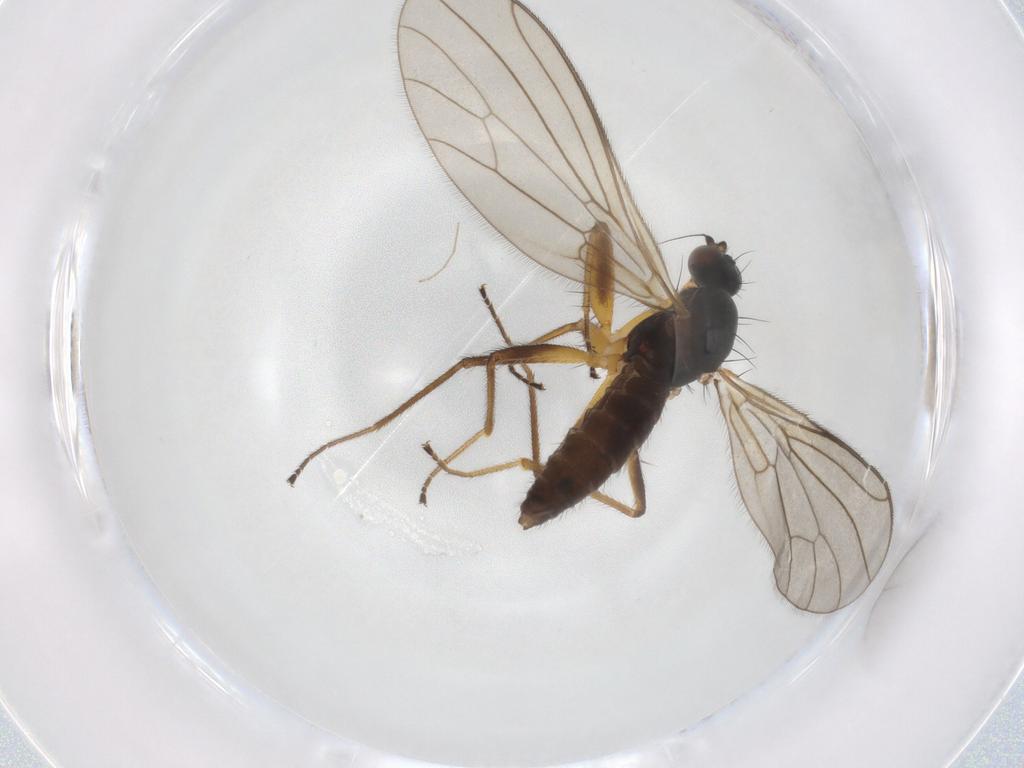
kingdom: Animalia
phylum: Arthropoda
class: Insecta
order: Diptera
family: Empididae
